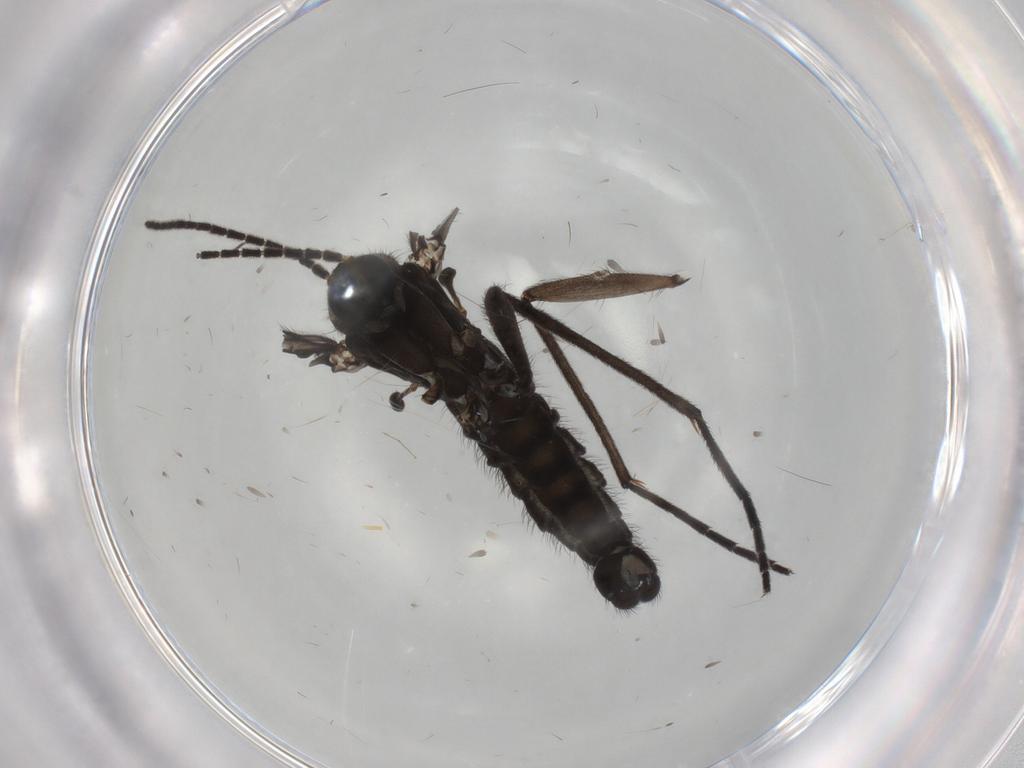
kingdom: Animalia
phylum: Arthropoda
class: Insecta
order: Diptera
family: Sciaridae
